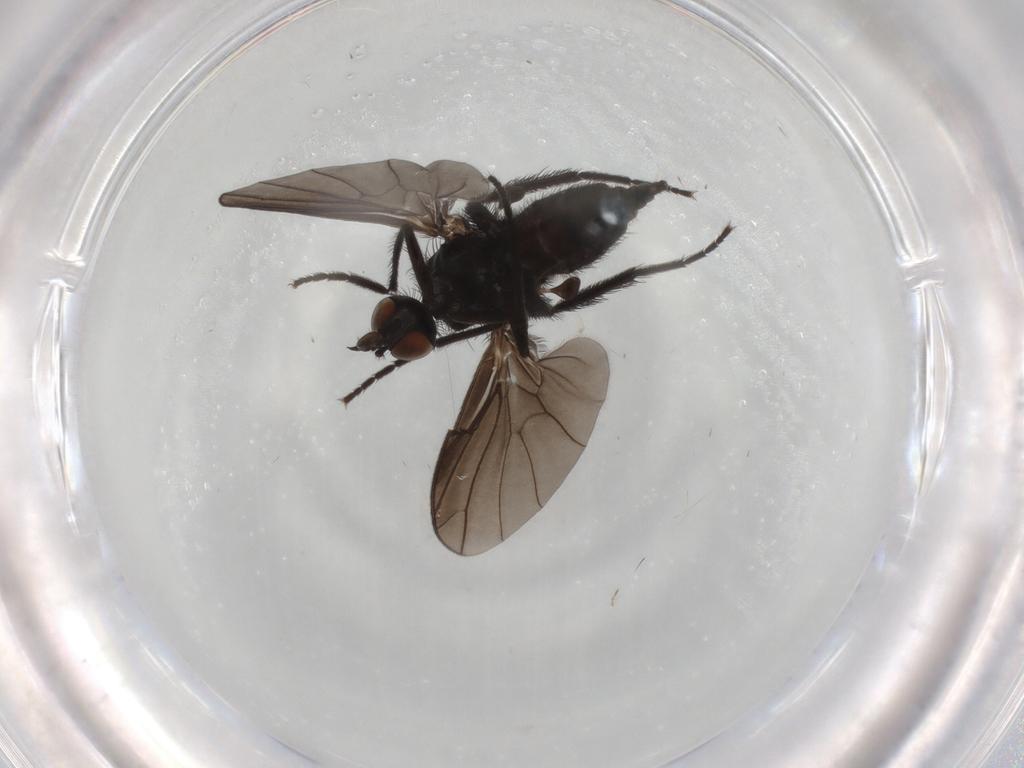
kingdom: Animalia
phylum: Arthropoda
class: Insecta
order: Diptera
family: Empididae
